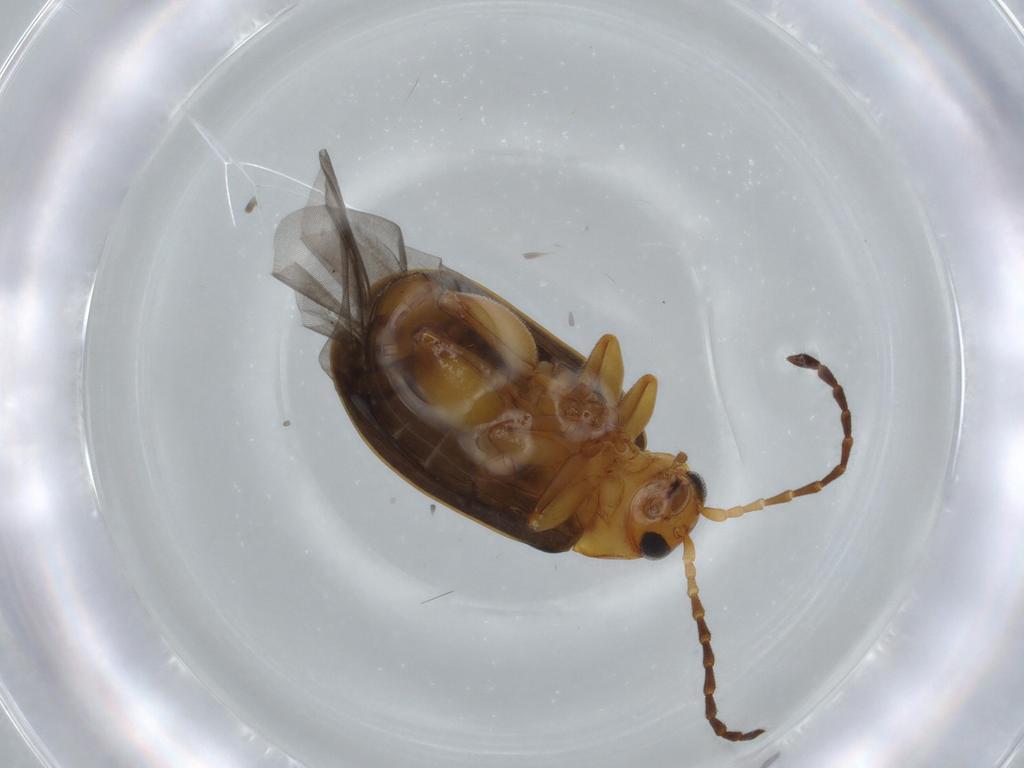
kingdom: Animalia
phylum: Arthropoda
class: Insecta
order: Coleoptera
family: Chrysomelidae
